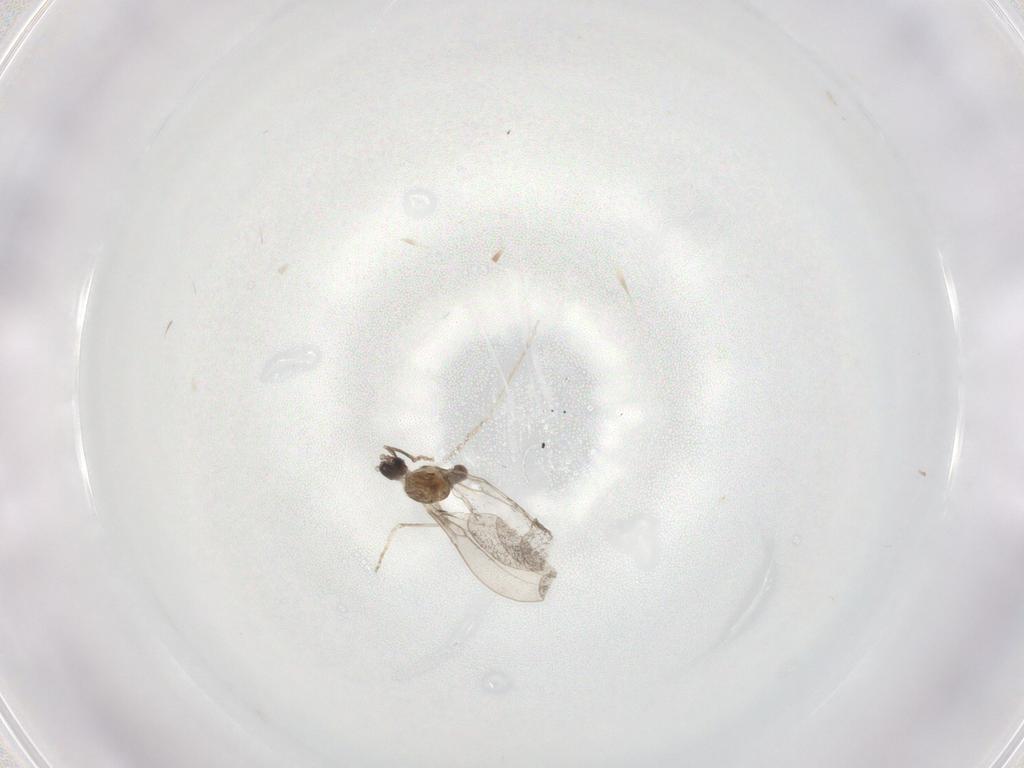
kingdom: Animalia
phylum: Arthropoda
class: Insecta
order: Diptera
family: Chironomidae
